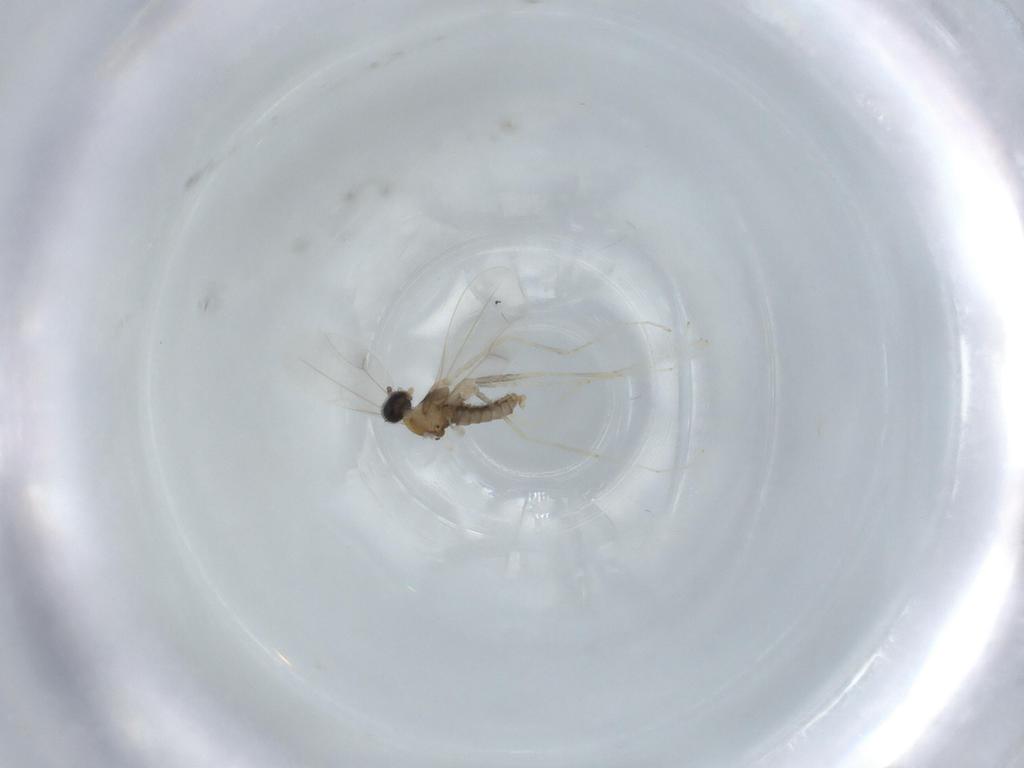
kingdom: Animalia
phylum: Arthropoda
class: Insecta
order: Diptera
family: Cecidomyiidae
